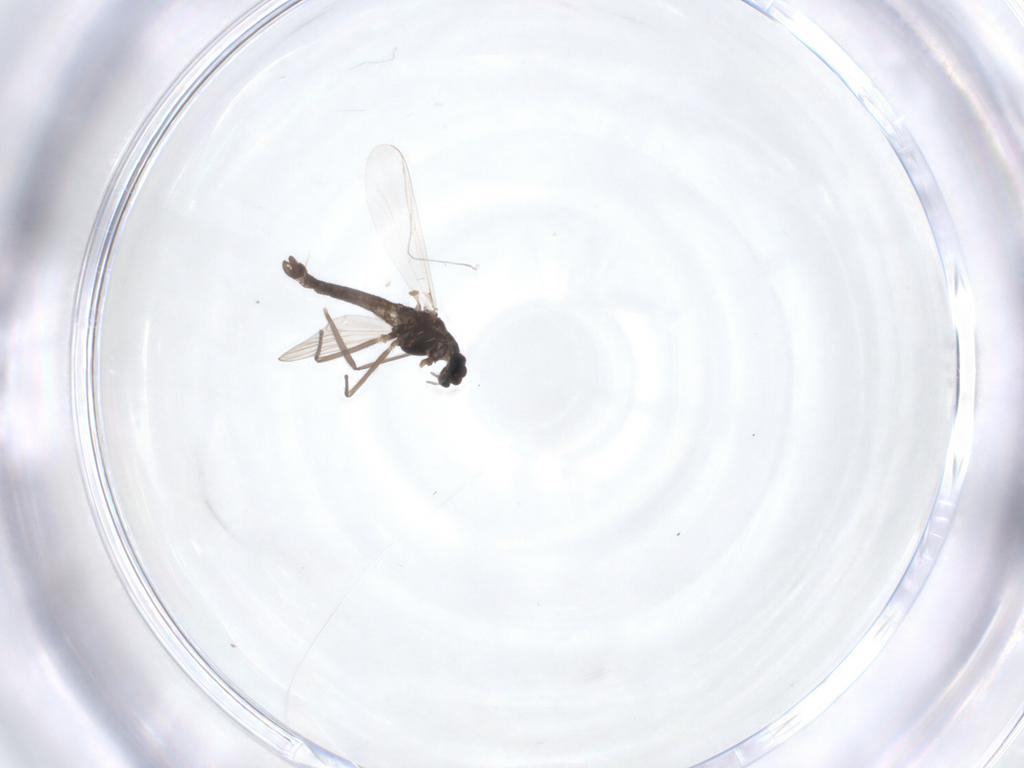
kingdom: Animalia
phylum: Arthropoda
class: Insecta
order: Diptera
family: Chironomidae
